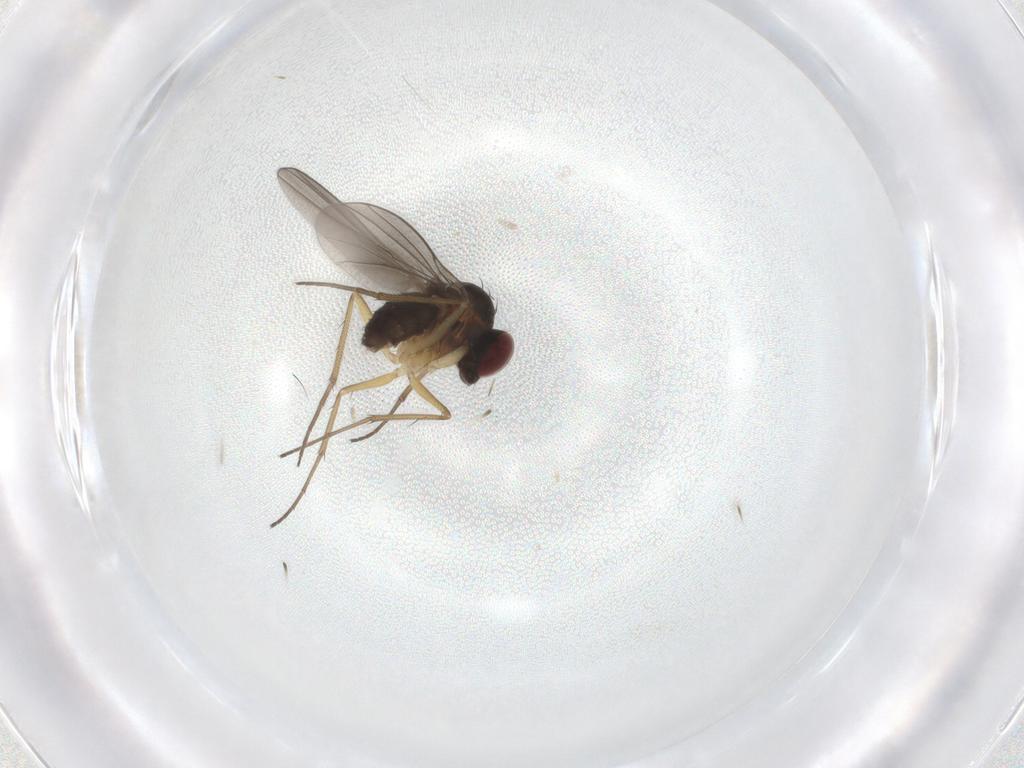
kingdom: Animalia
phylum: Arthropoda
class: Insecta
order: Diptera
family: Dolichopodidae
